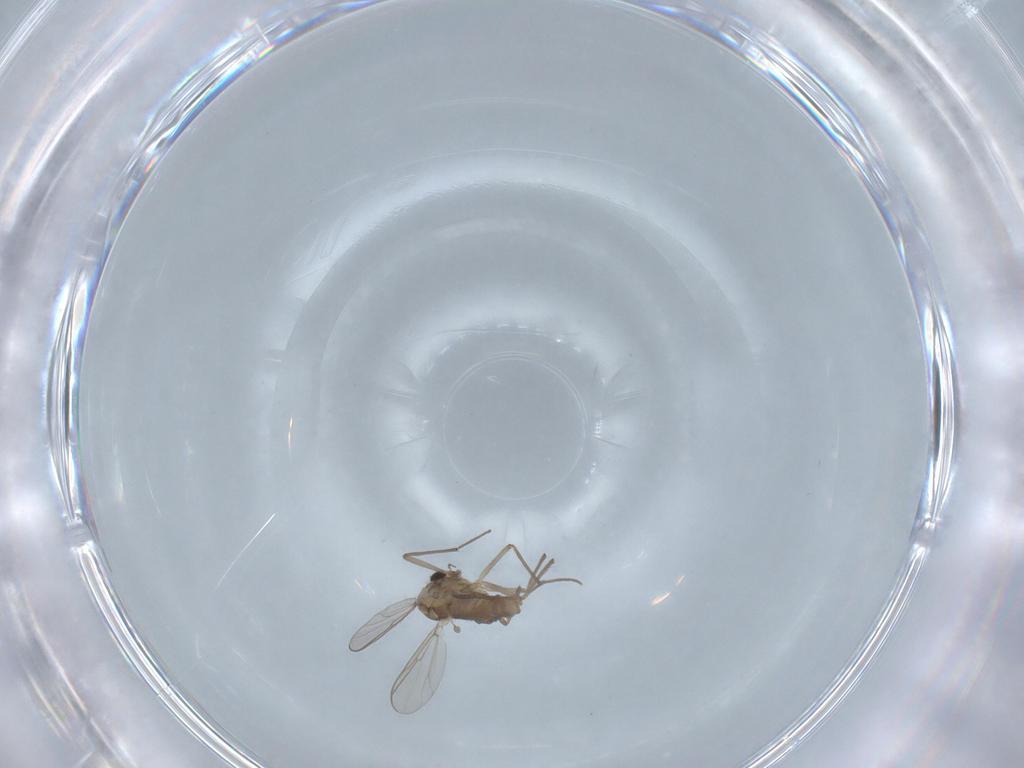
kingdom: Animalia
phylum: Arthropoda
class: Insecta
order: Diptera
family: Chironomidae
